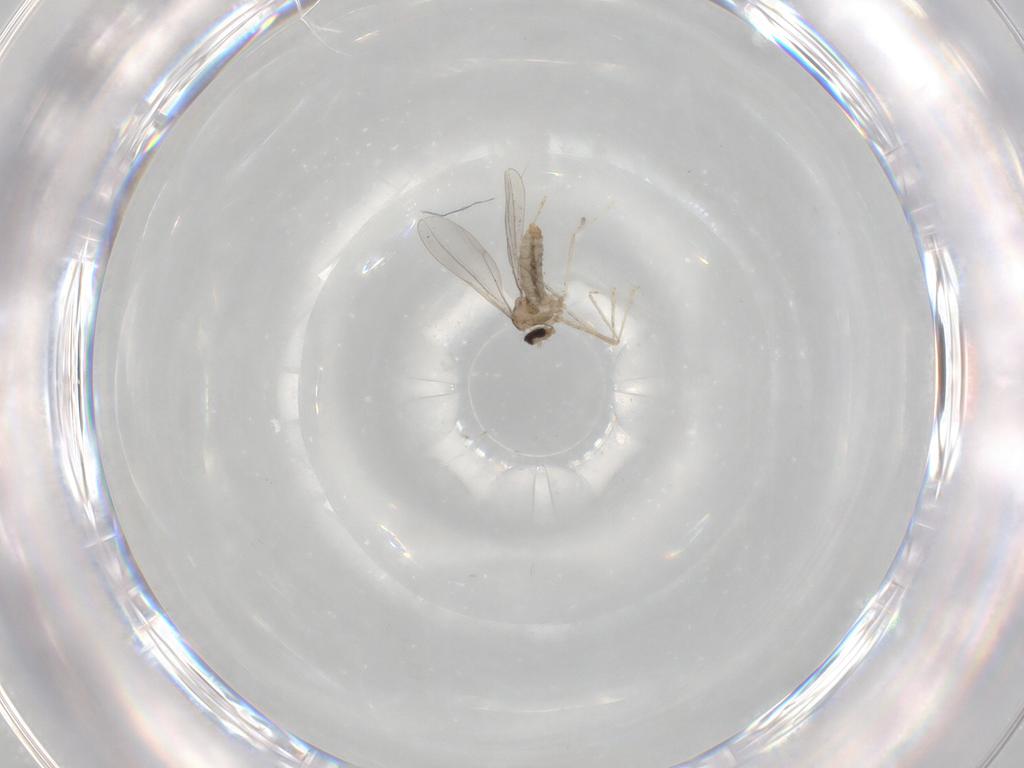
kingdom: Animalia
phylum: Arthropoda
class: Insecta
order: Diptera
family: Cecidomyiidae
